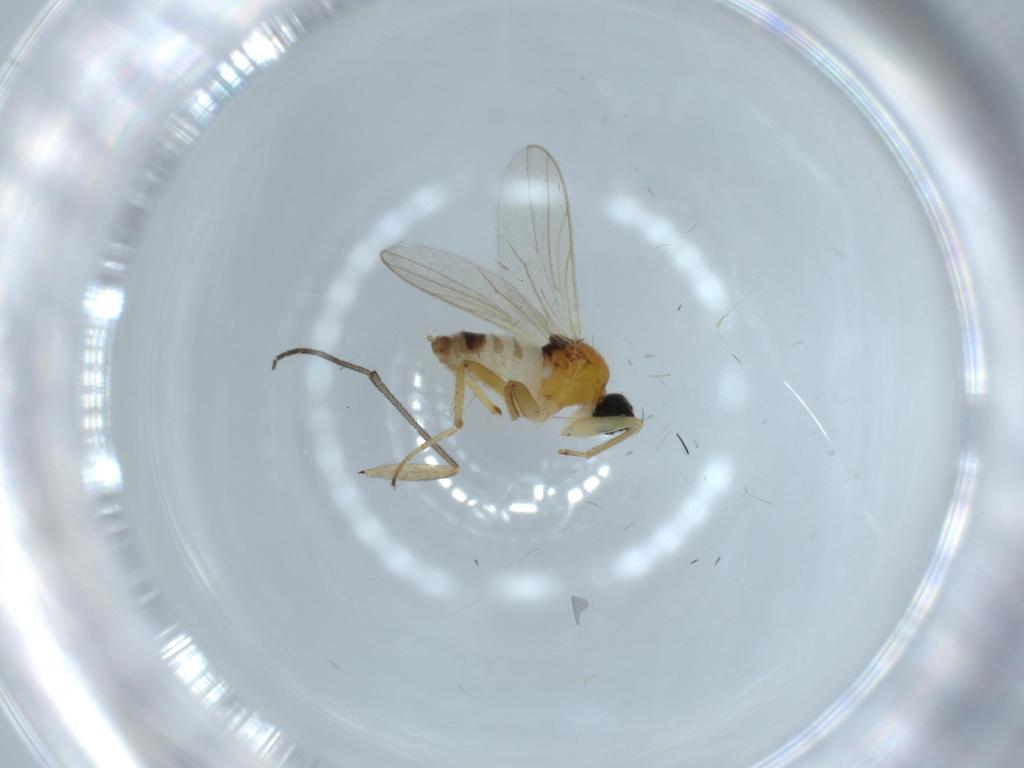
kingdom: Animalia
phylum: Arthropoda
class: Insecta
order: Diptera
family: Hybotidae
